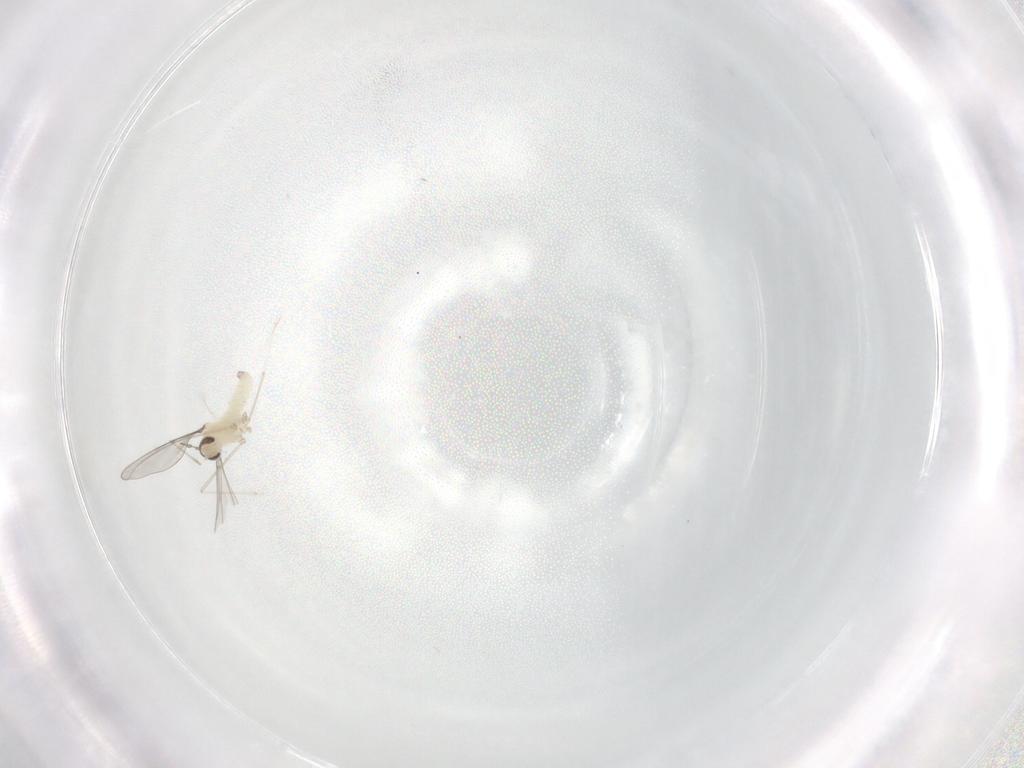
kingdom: Animalia
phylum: Arthropoda
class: Insecta
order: Diptera
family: Cecidomyiidae
